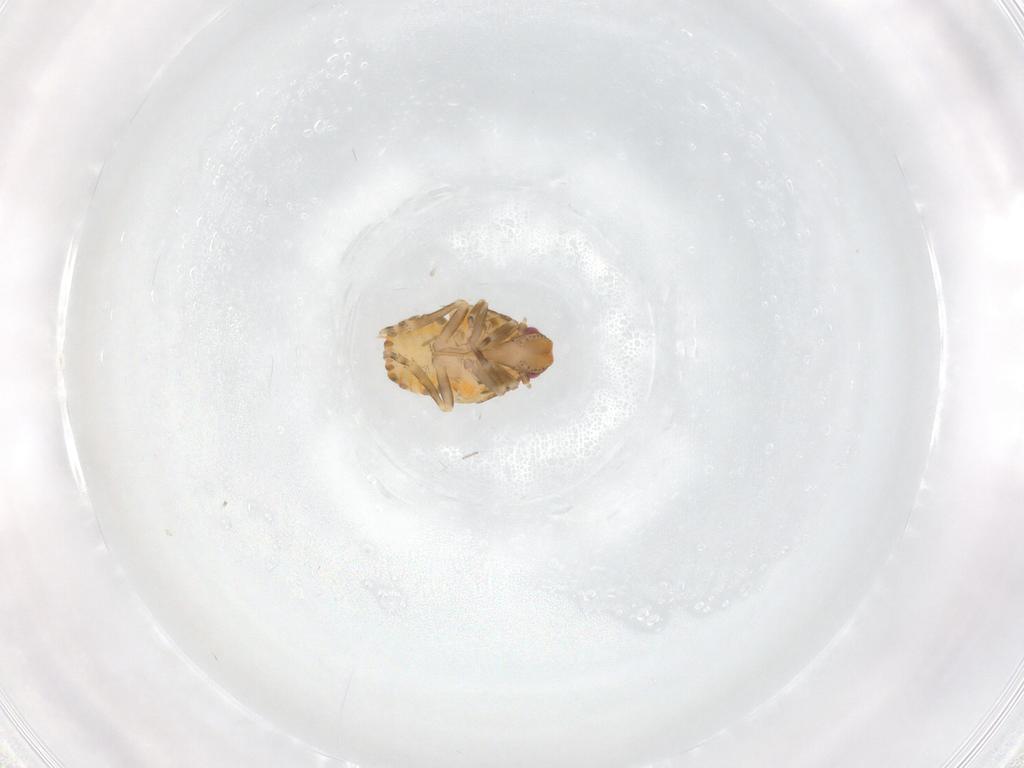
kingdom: Animalia
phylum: Arthropoda
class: Insecta
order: Hemiptera
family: Flatidae
